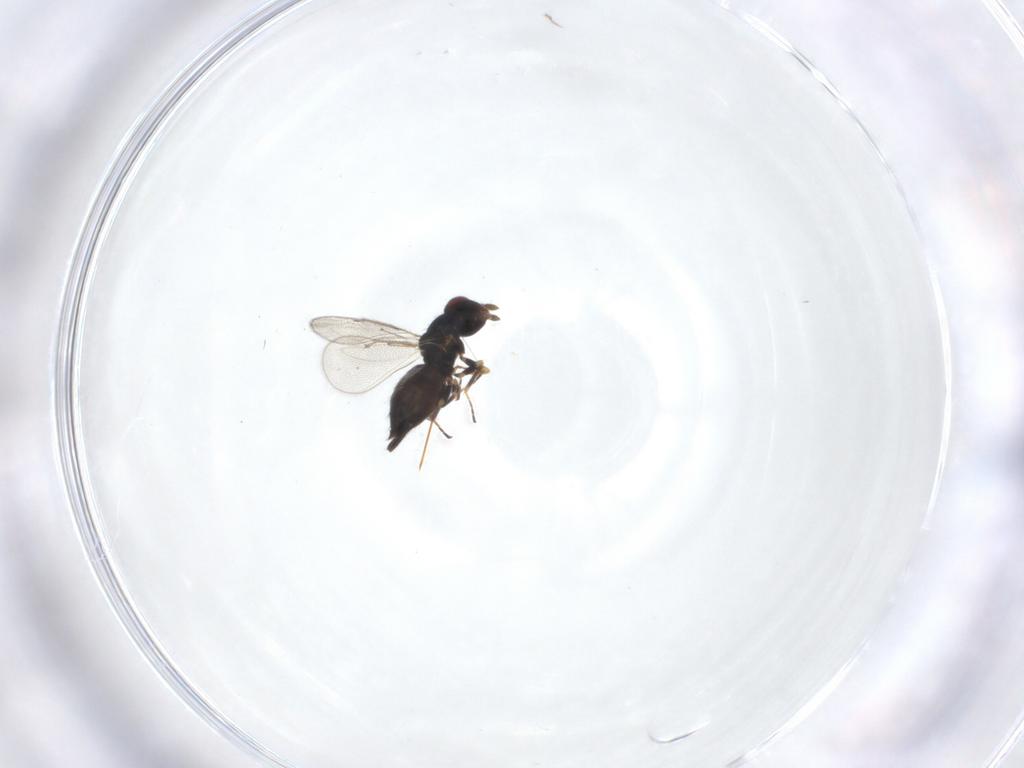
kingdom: Animalia
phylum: Arthropoda
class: Insecta
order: Hymenoptera
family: Eulophidae
